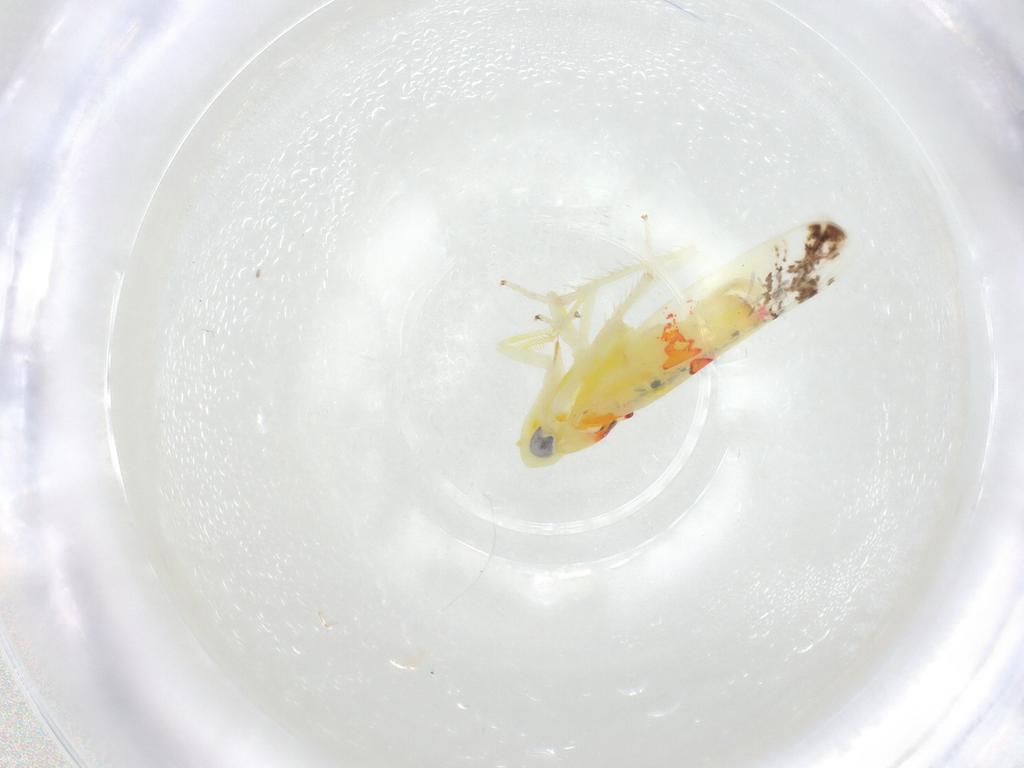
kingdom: Animalia
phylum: Arthropoda
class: Insecta
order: Hemiptera
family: Cicadellidae
